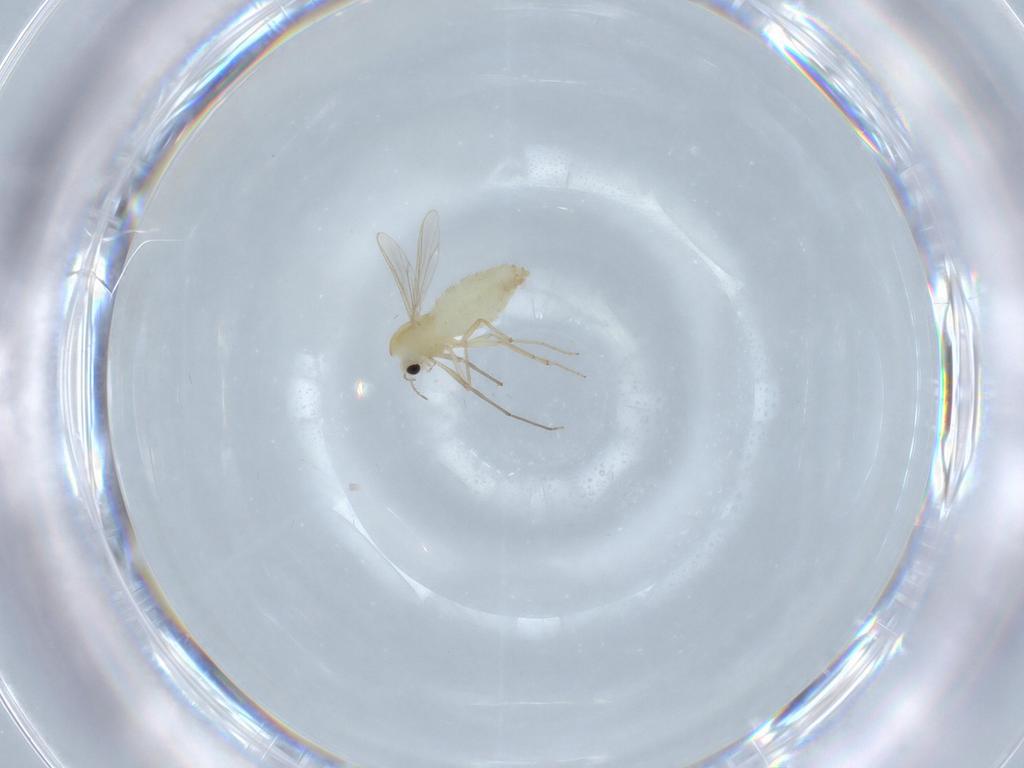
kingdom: Animalia
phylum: Arthropoda
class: Insecta
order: Diptera
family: Chironomidae
